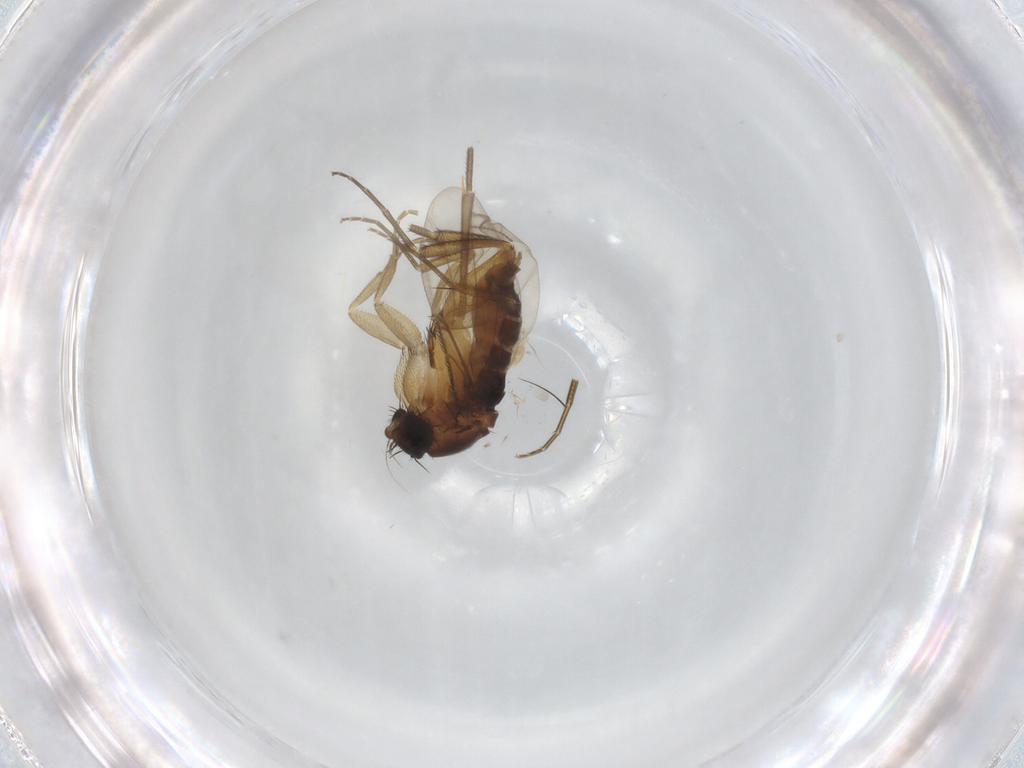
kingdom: Animalia
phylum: Arthropoda
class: Insecta
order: Diptera
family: Phoridae
